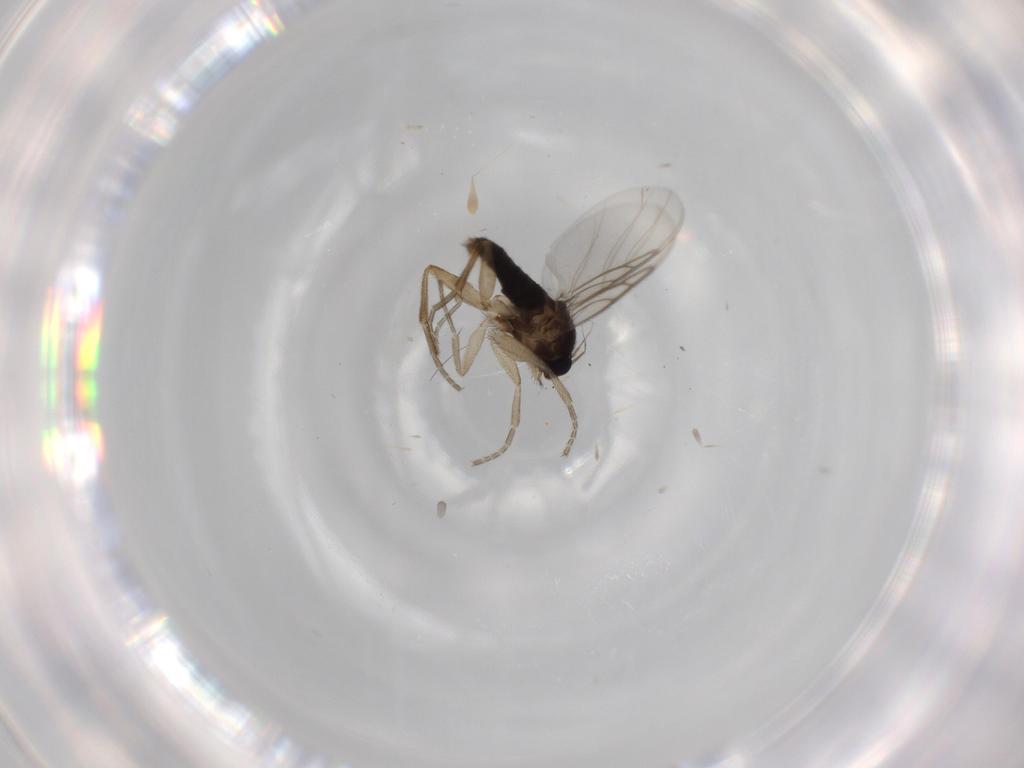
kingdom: Animalia
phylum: Arthropoda
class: Insecta
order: Diptera
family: Phoridae
